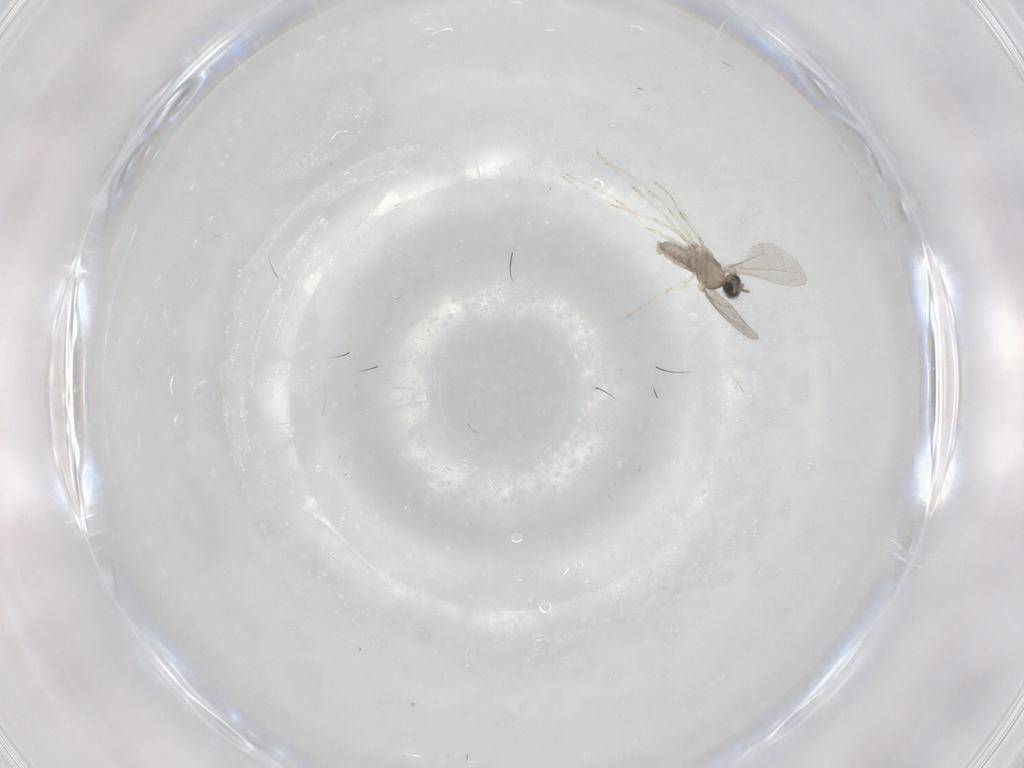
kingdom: Animalia
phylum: Arthropoda
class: Insecta
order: Diptera
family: Cecidomyiidae
